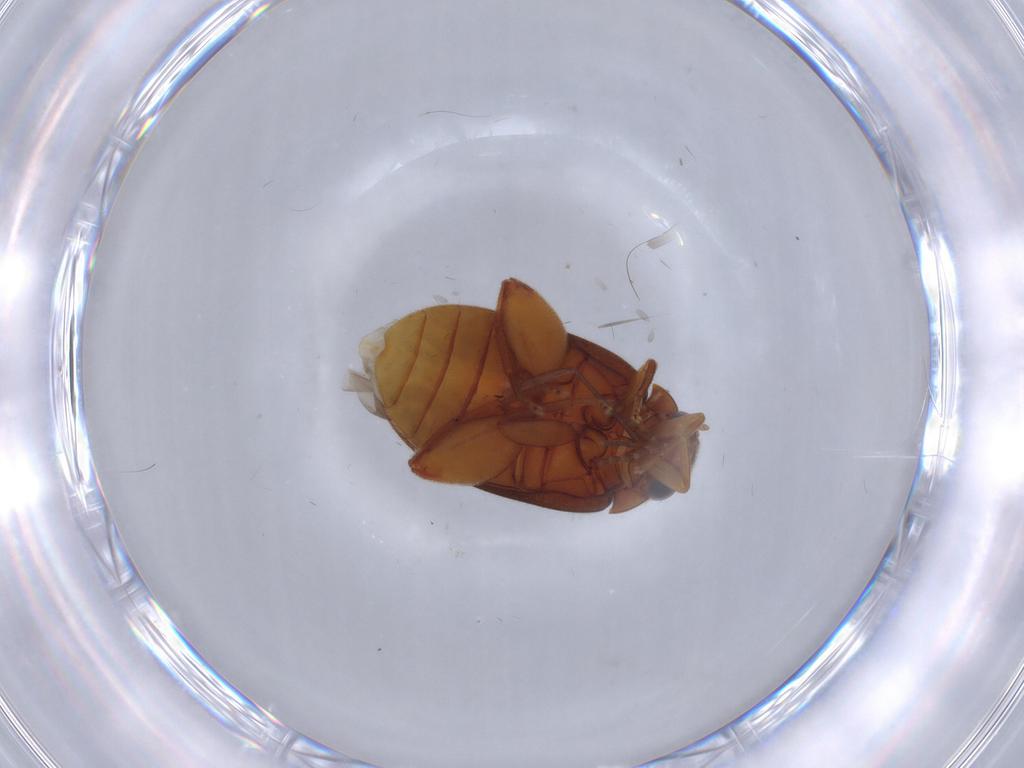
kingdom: Animalia
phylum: Arthropoda
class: Insecta
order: Coleoptera
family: Scirtidae
